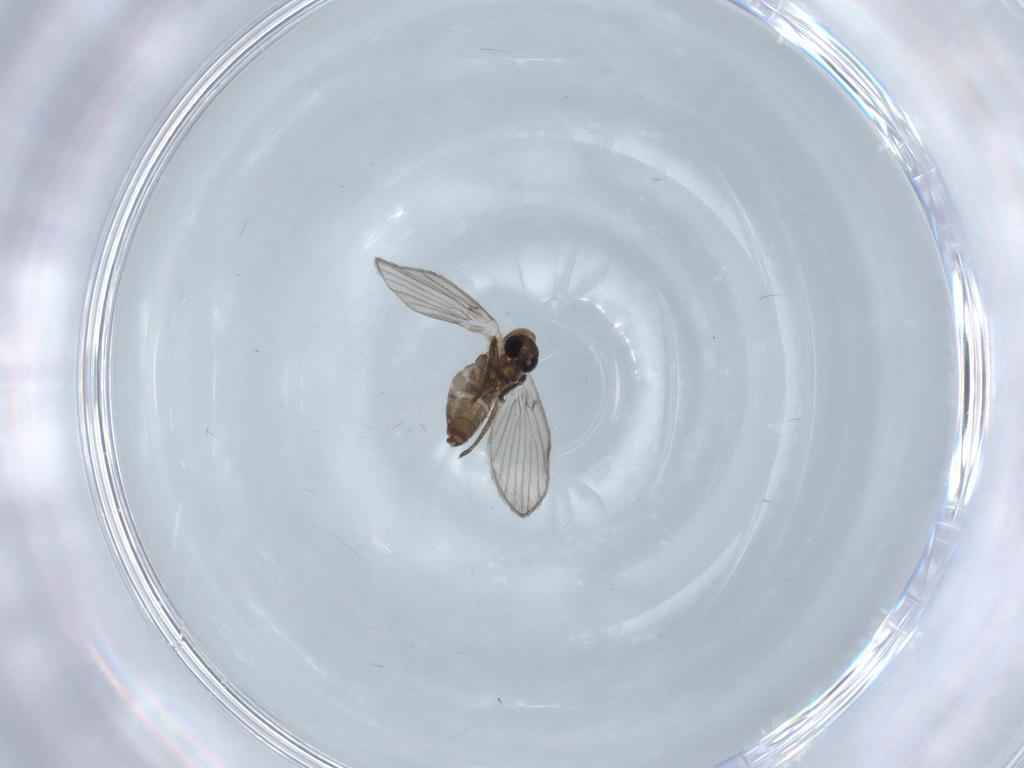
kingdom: Animalia
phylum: Arthropoda
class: Insecta
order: Diptera
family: Psychodidae
